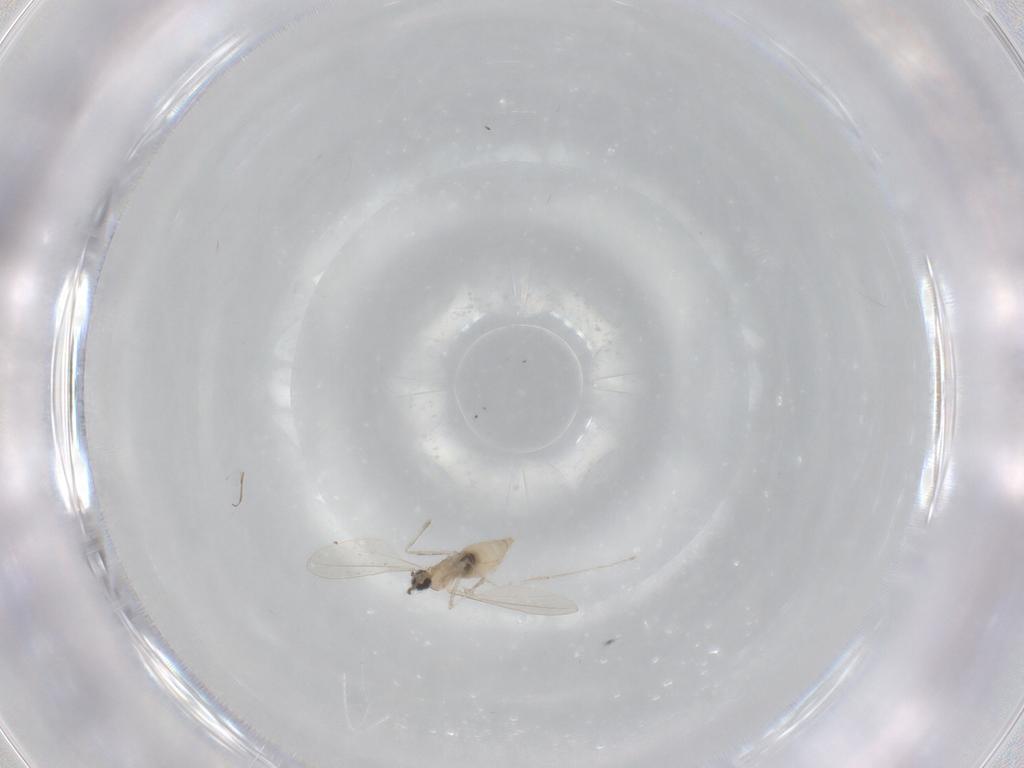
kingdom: Animalia
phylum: Arthropoda
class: Insecta
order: Diptera
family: Cecidomyiidae
